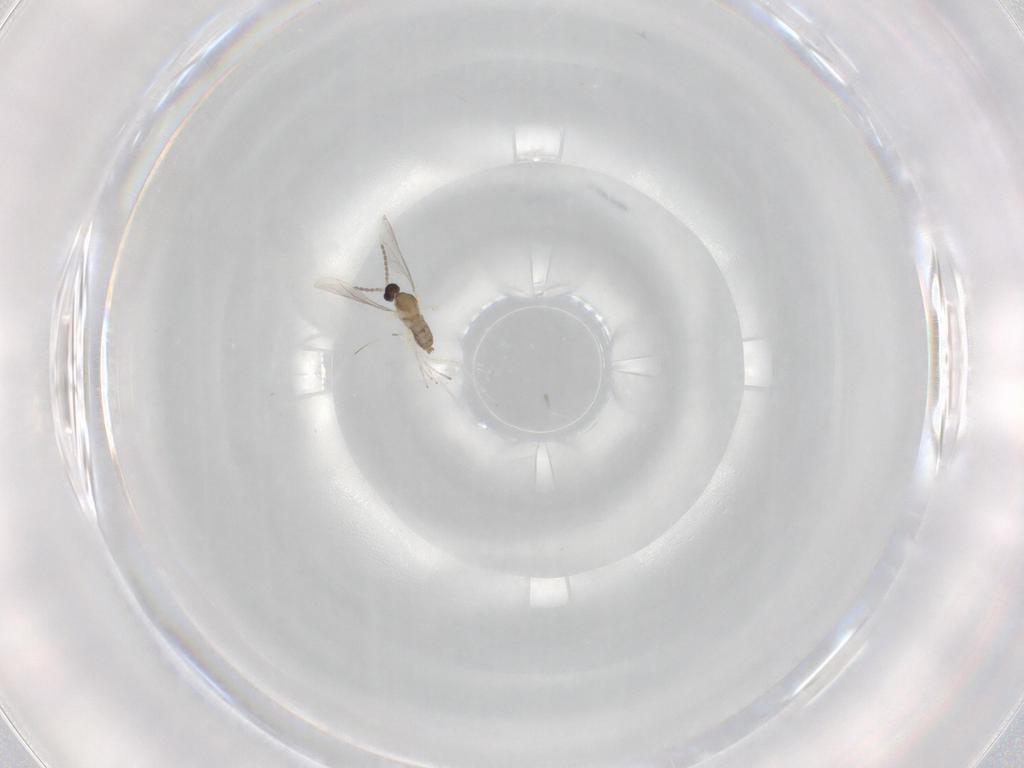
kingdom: Animalia
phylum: Arthropoda
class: Insecta
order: Diptera
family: Cecidomyiidae
